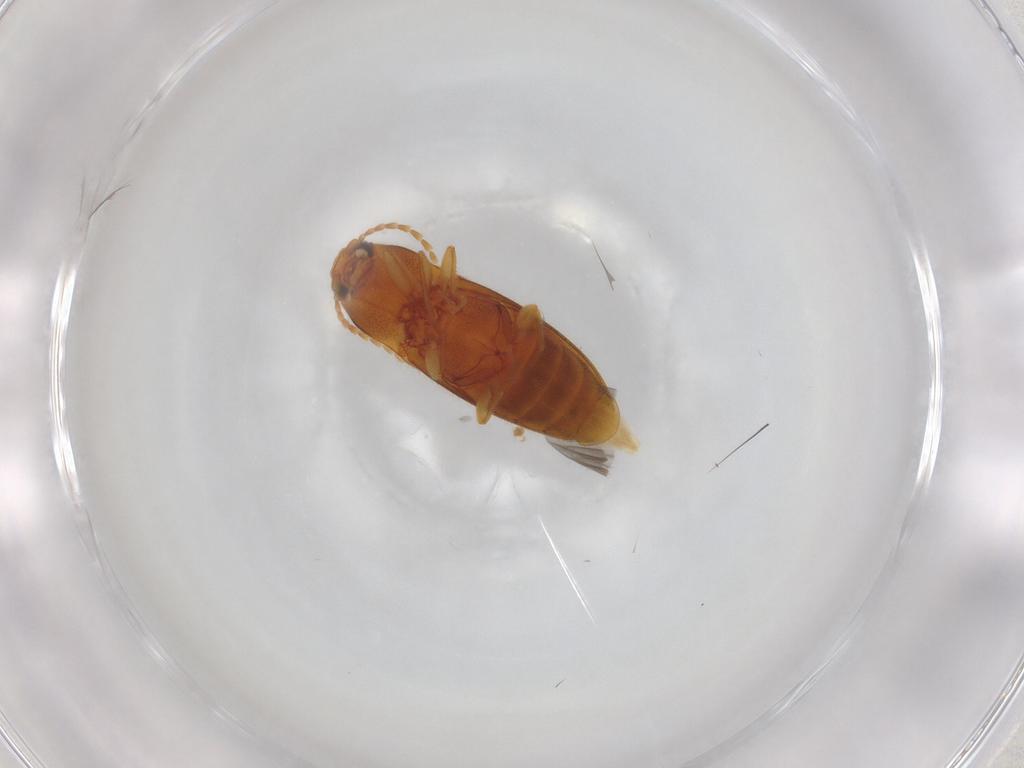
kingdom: Animalia
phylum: Arthropoda
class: Insecta
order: Coleoptera
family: Elateridae
